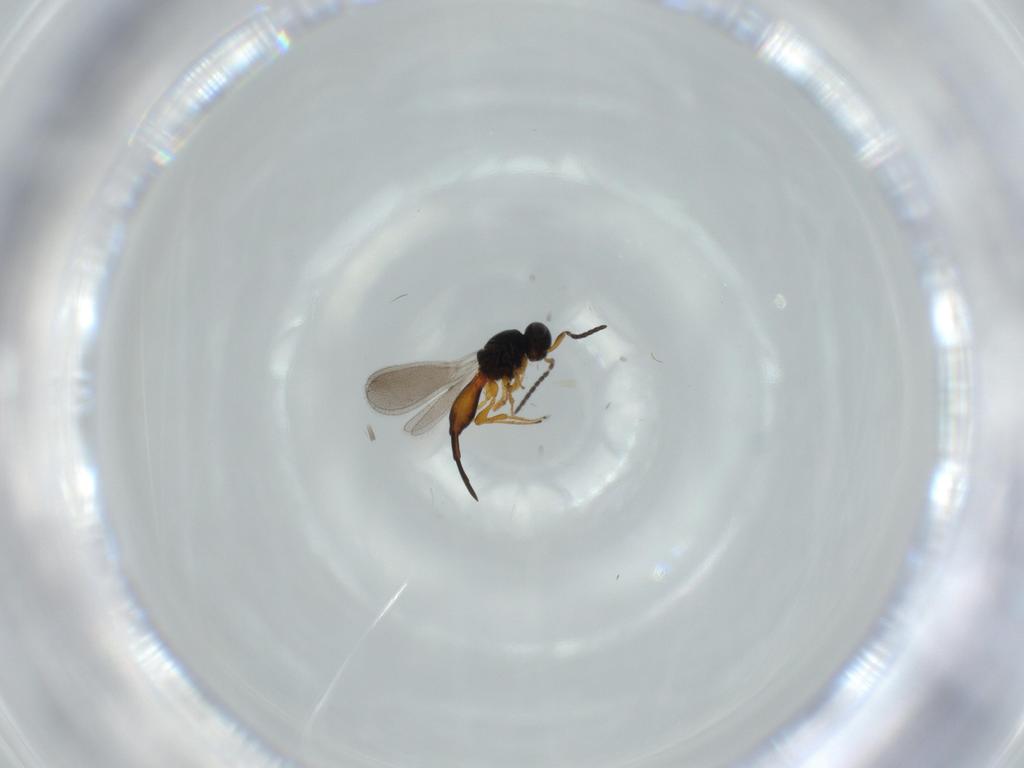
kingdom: Animalia
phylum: Arthropoda
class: Insecta
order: Hymenoptera
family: Platygastridae
